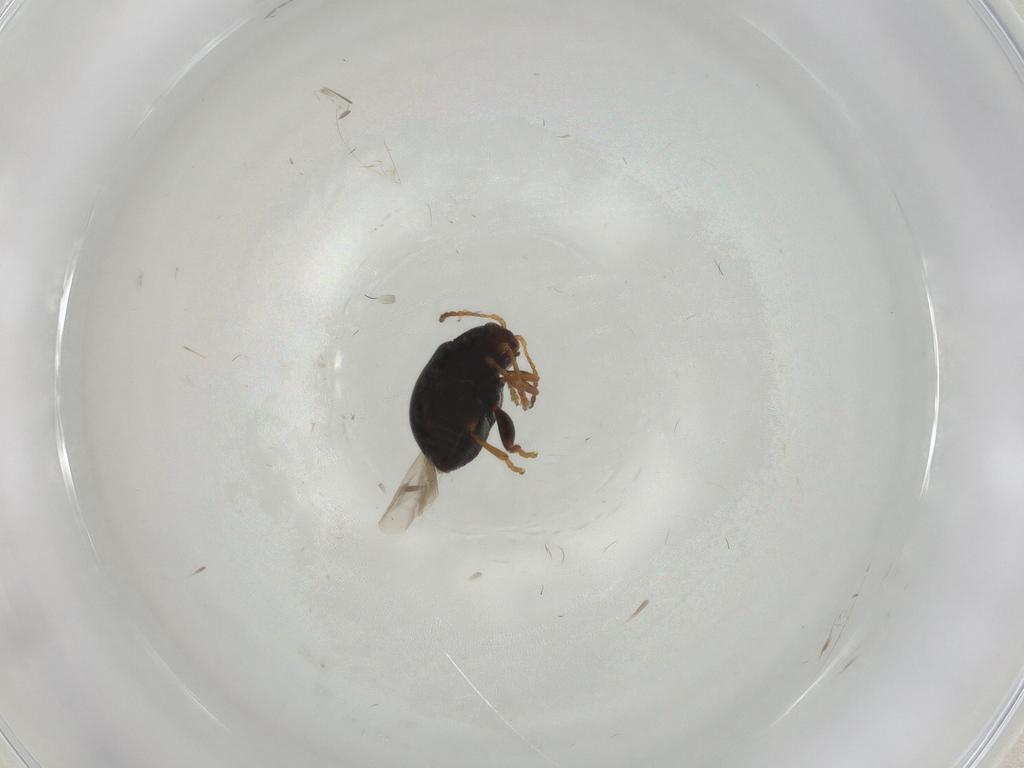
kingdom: Animalia
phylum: Arthropoda
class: Insecta
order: Coleoptera
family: Chrysomelidae
